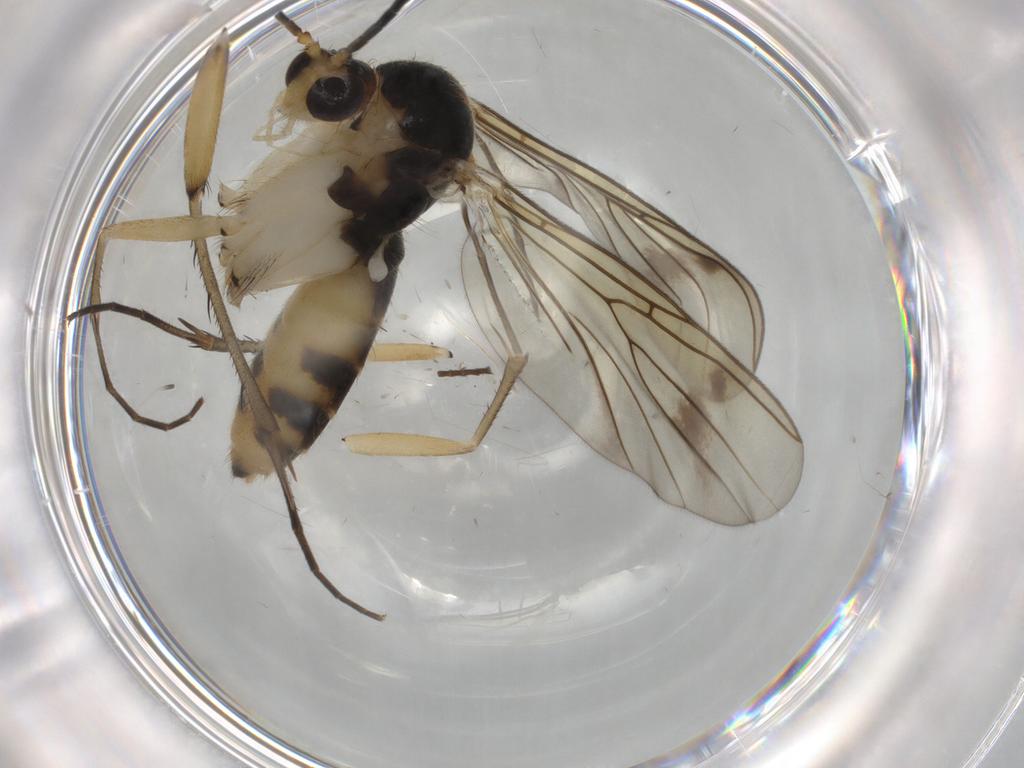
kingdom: Animalia
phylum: Arthropoda
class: Insecta
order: Diptera
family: Mycetophilidae
